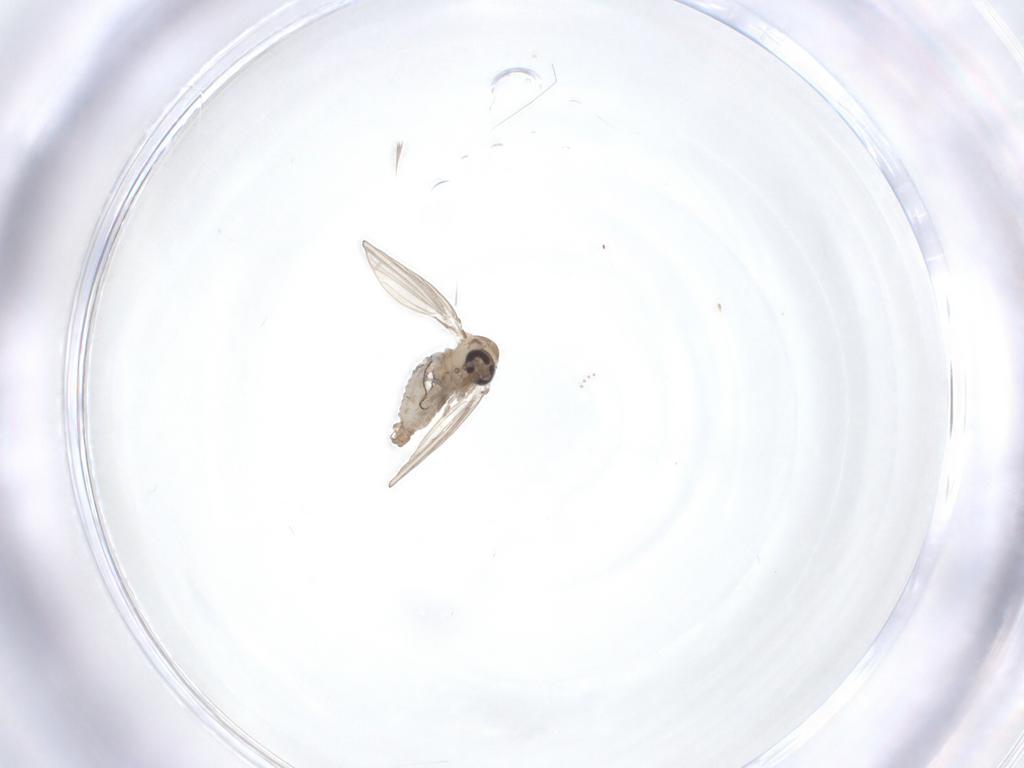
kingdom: Animalia
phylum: Arthropoda
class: Insecta
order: Diptera
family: Psychodidae
